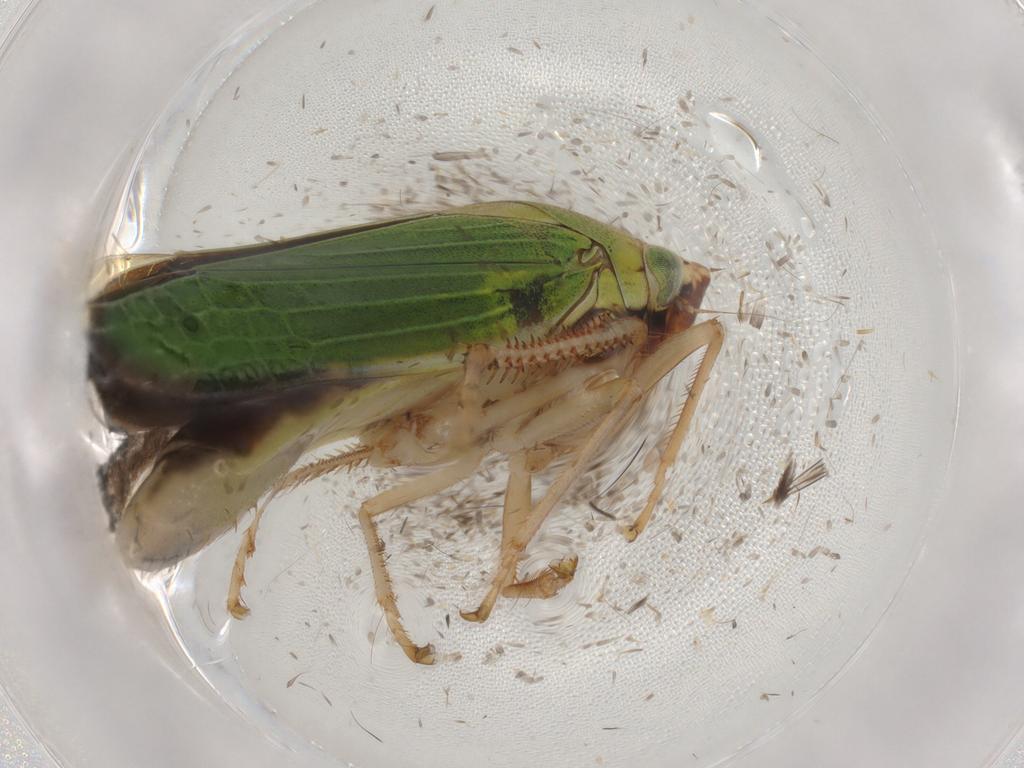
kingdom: Animalia
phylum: Arthropoda
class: Insecta
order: Hemiptera
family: Cicadellidae
